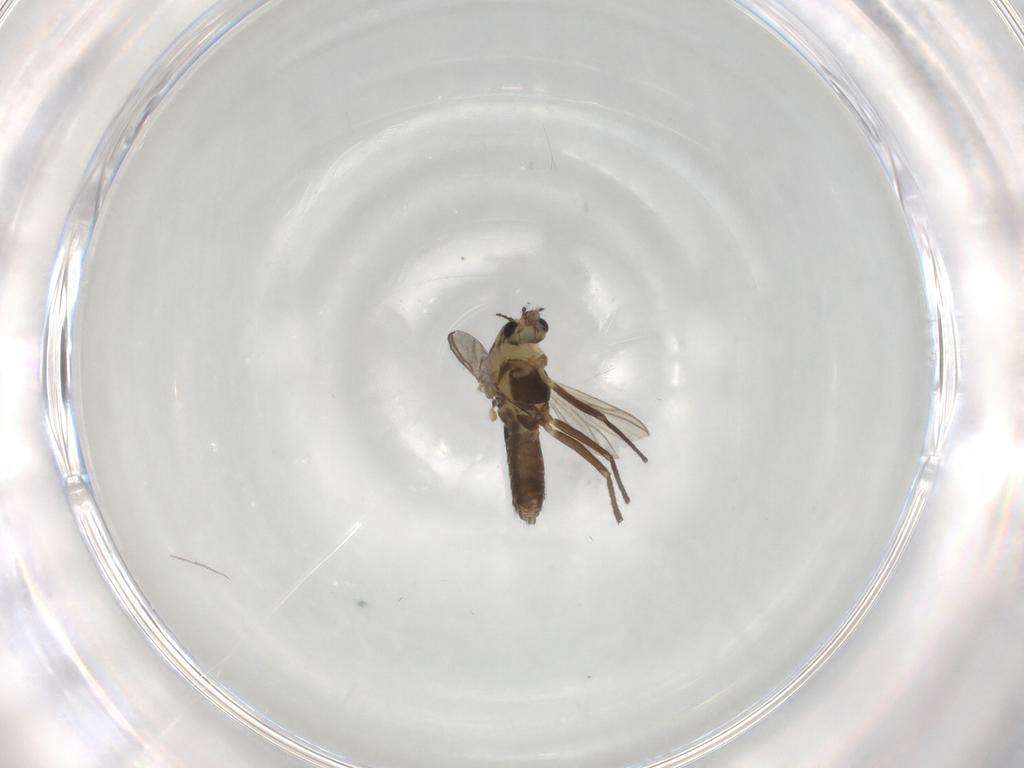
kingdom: Animalia
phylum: Arthropoda
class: Insecta
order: Diptera
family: Chironomidae
